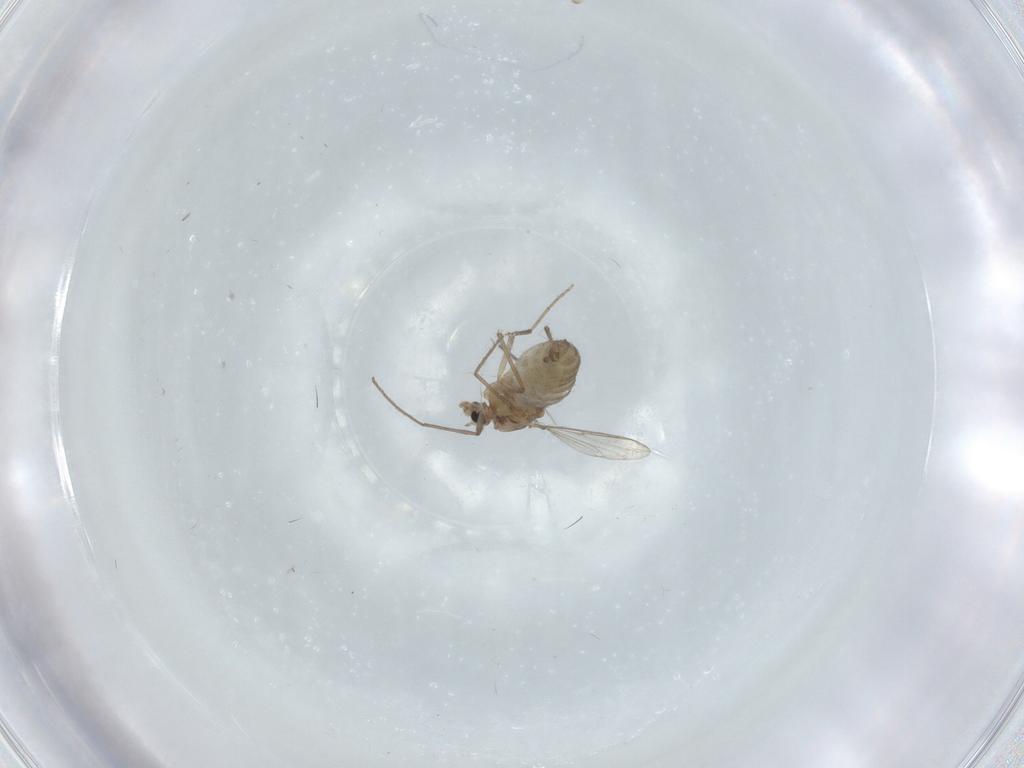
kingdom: Animalia
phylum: Arthropoda
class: Insecta
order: Diptera
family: Chironomidae
